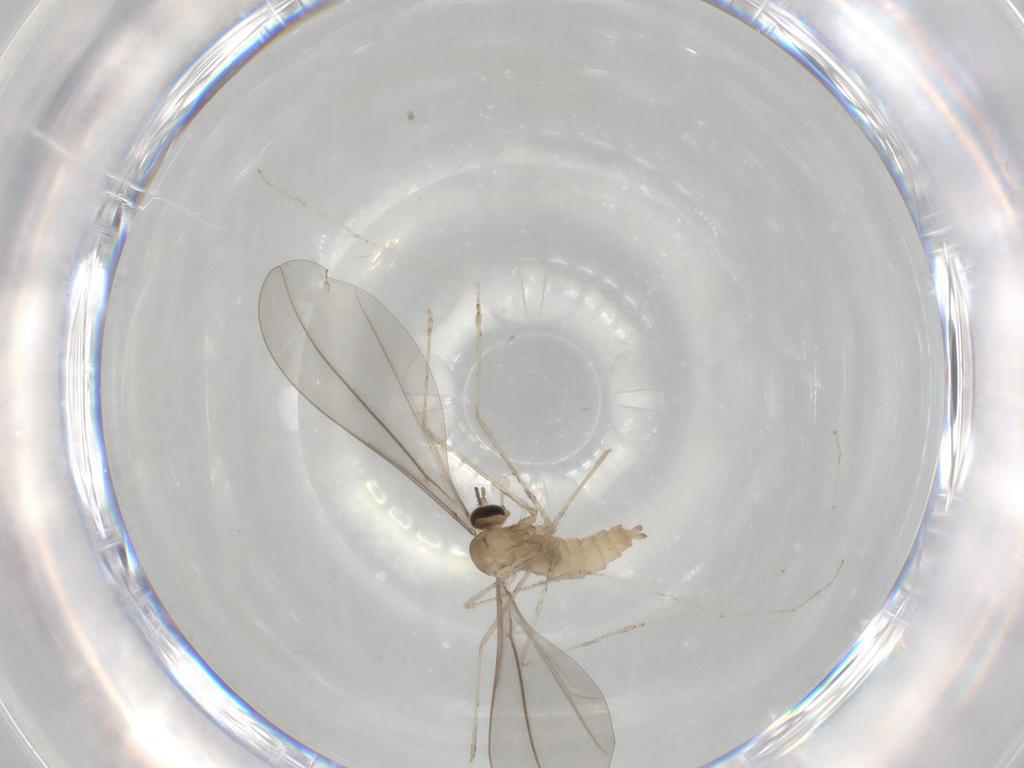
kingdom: Animalia
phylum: Arthropoda
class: Insecta
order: Diptera
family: Cecidomyiidae
